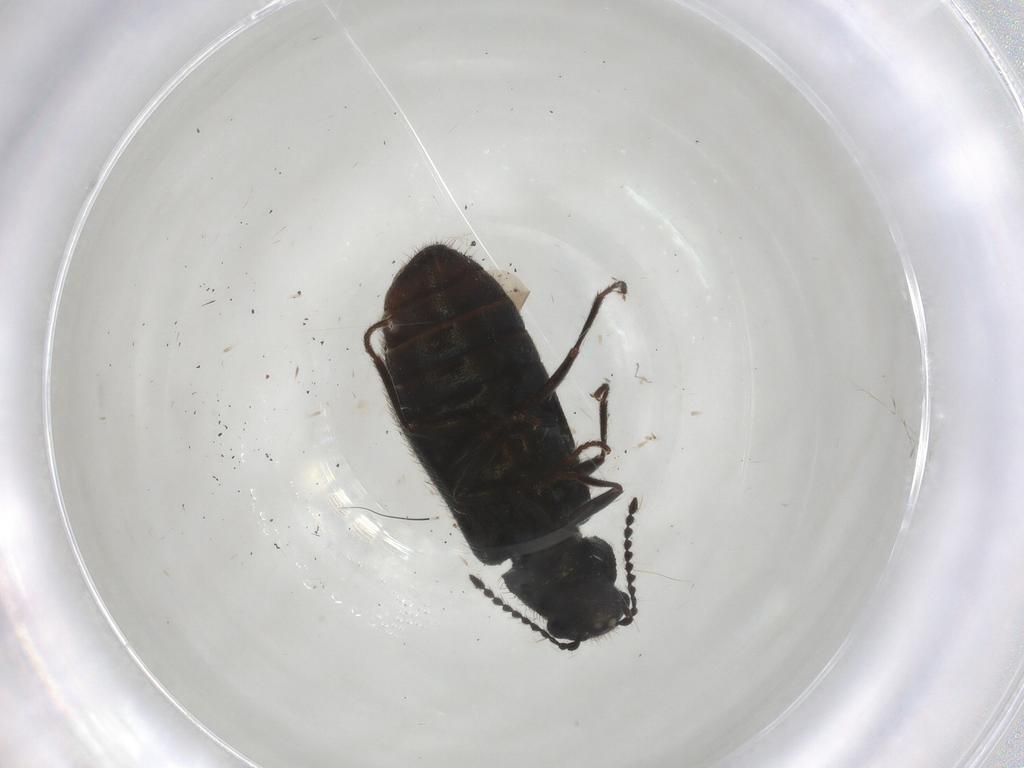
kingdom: Animalia
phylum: Arthropoda
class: Insecta
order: Coleoptera
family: Melyridae
